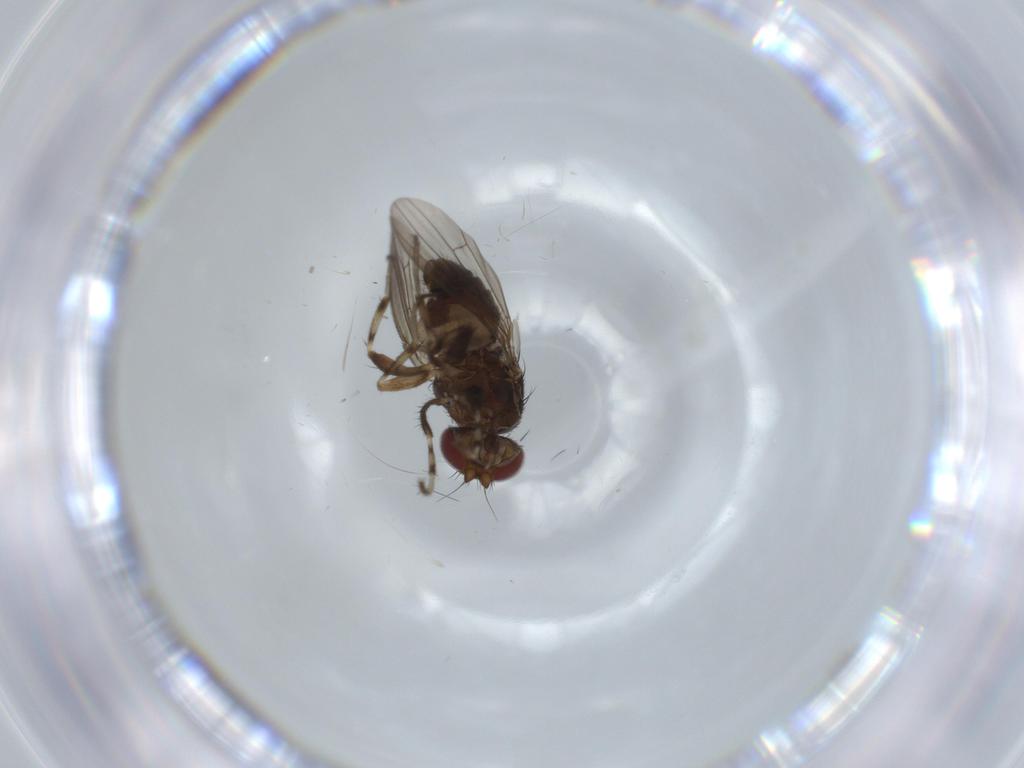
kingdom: Animalia
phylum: Arthropoda
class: Insecta
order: Diptera
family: Heleomyzidae
